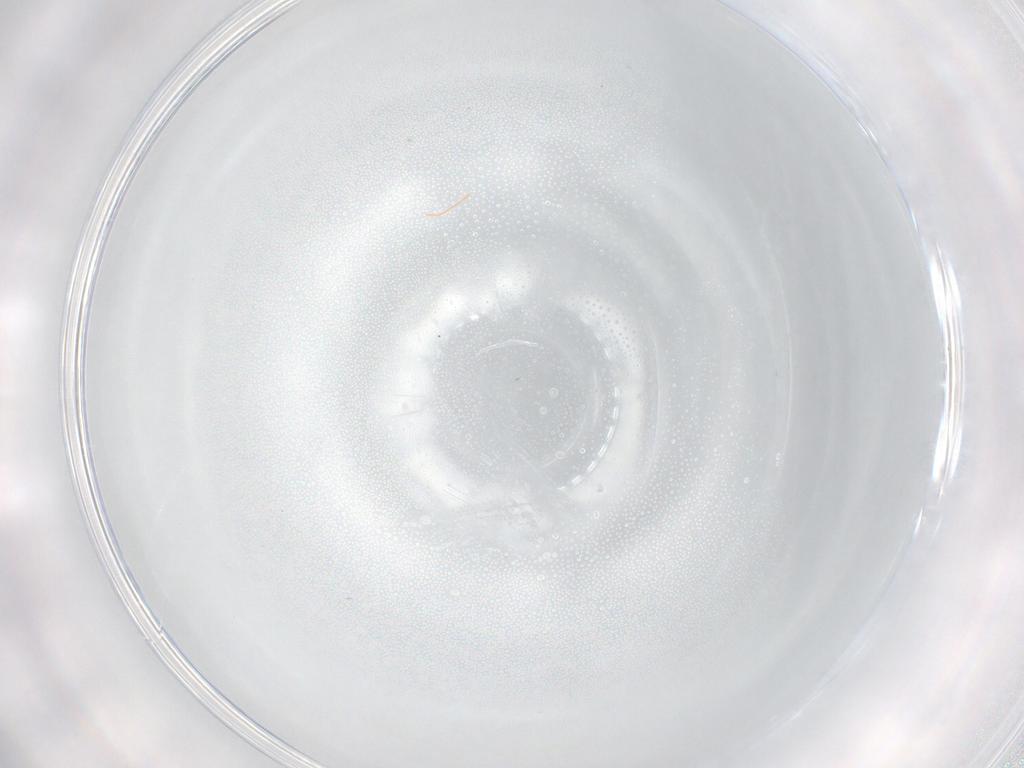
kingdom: Animalia
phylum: Arthropoda
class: Insecta
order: Diptera
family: Cecidomyiidae
